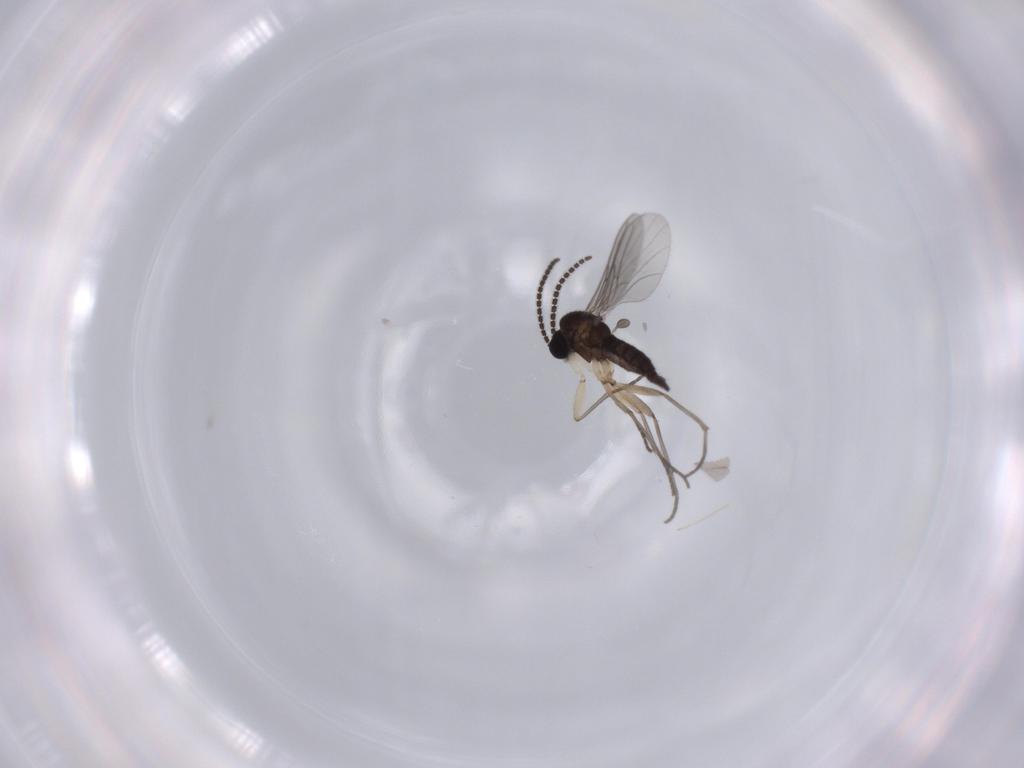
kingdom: Animalia
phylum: Arthropoda
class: Insecta
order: Diptera
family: Sciaridae
